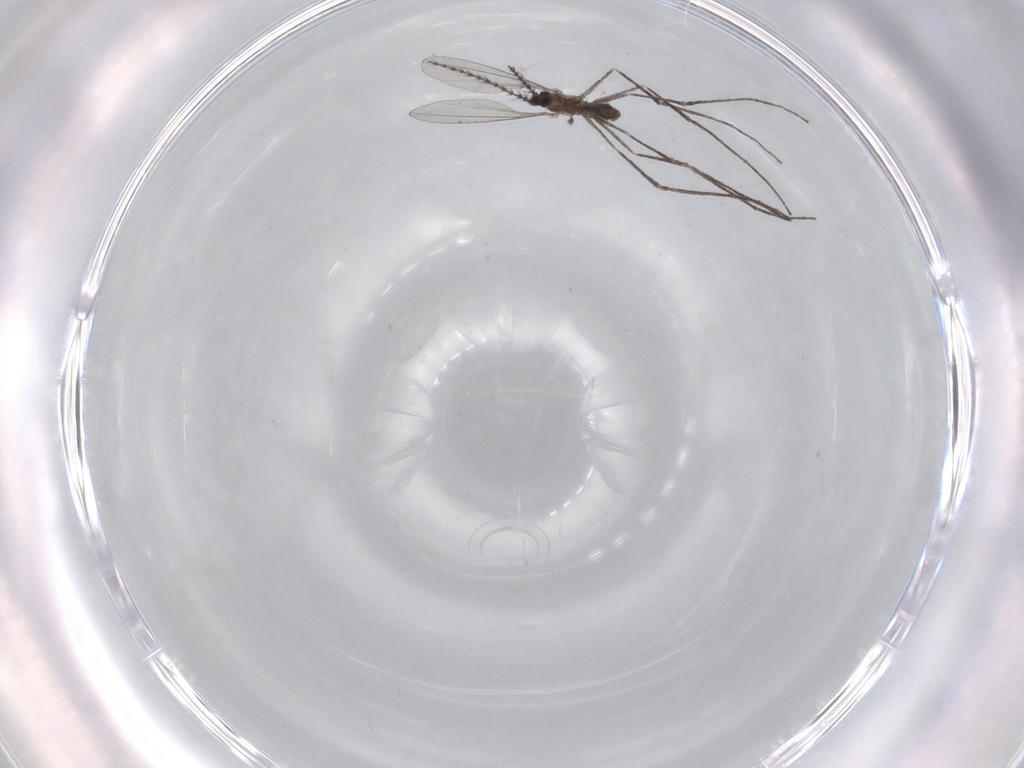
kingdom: Animalia
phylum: Arthropoda
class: Insecta
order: Diptera
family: Cecidomyiidae
